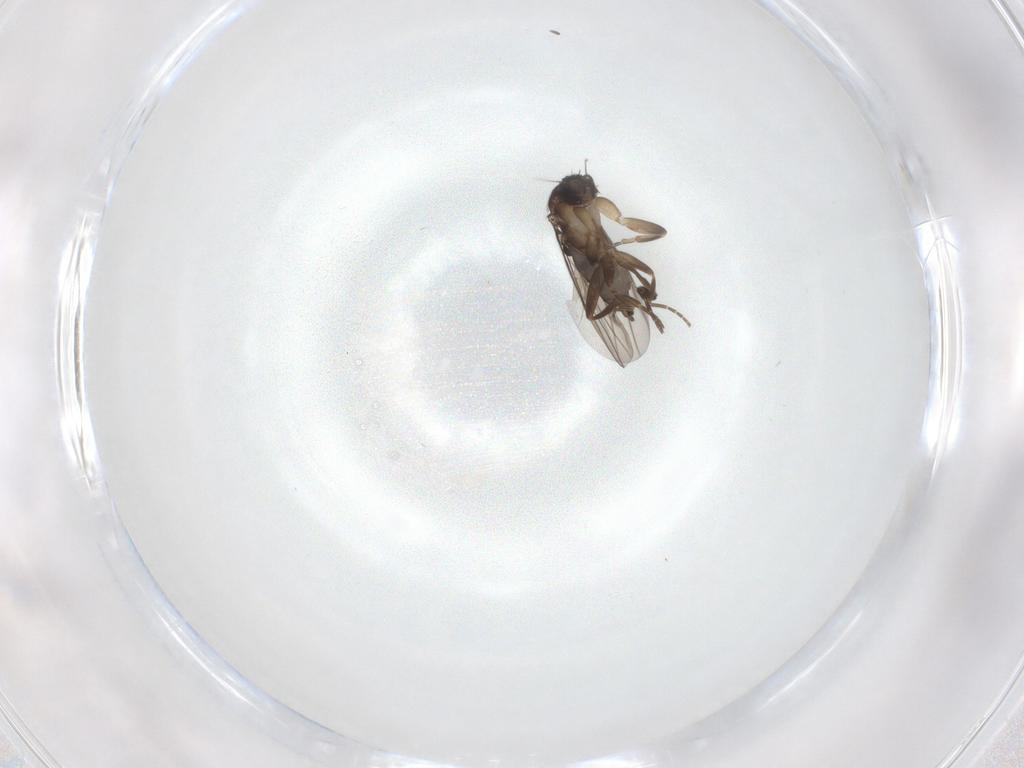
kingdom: Animalia
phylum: Arthropoda
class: Insecta
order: Diptera
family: Phoridae
